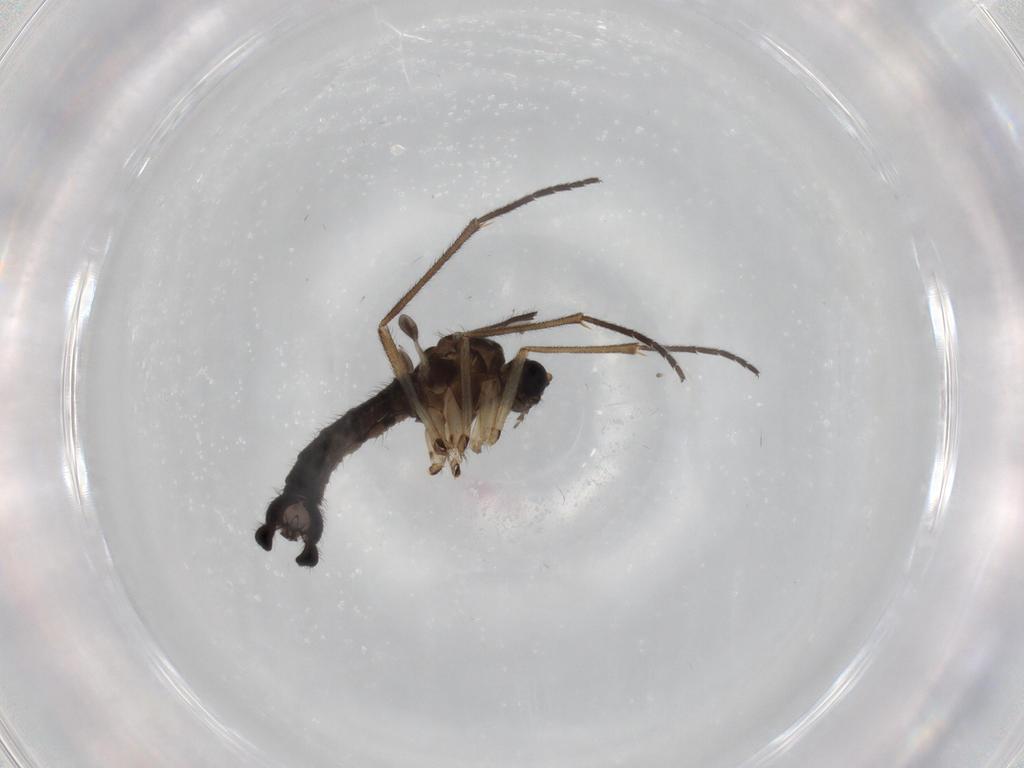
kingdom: Animalia
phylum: Arthropoda
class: Insecta
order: Diptera
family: Sciaridae
